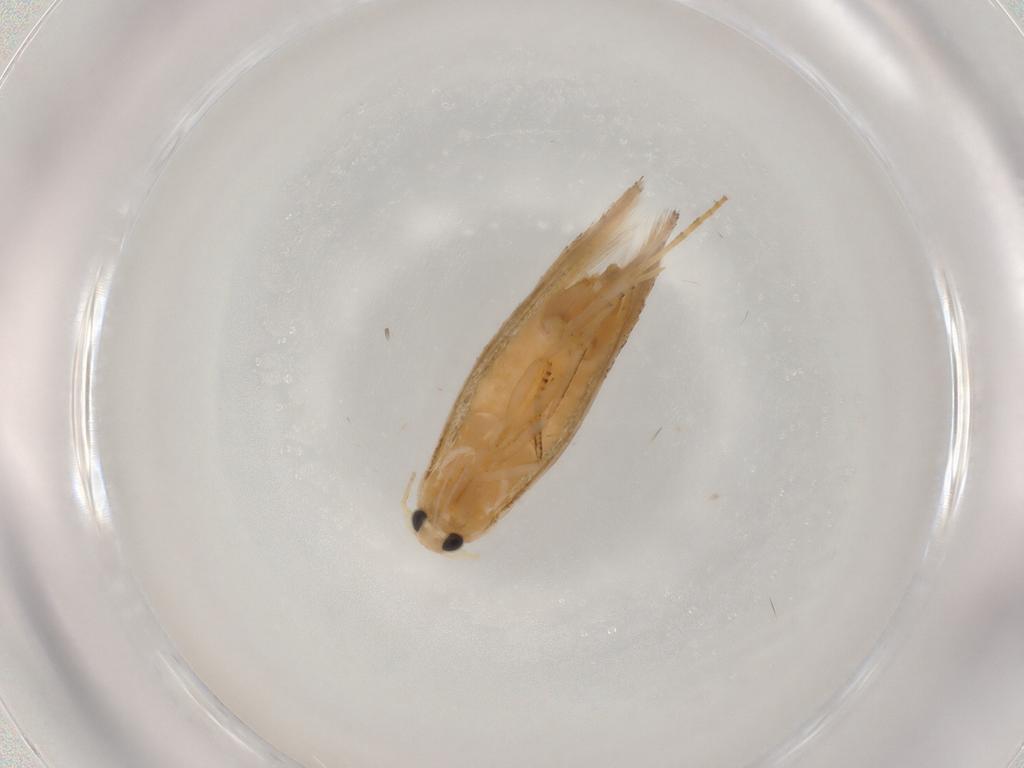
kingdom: Animalia
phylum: Arthropoda
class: Insecta
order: Lepidoptera
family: Noctuidae
